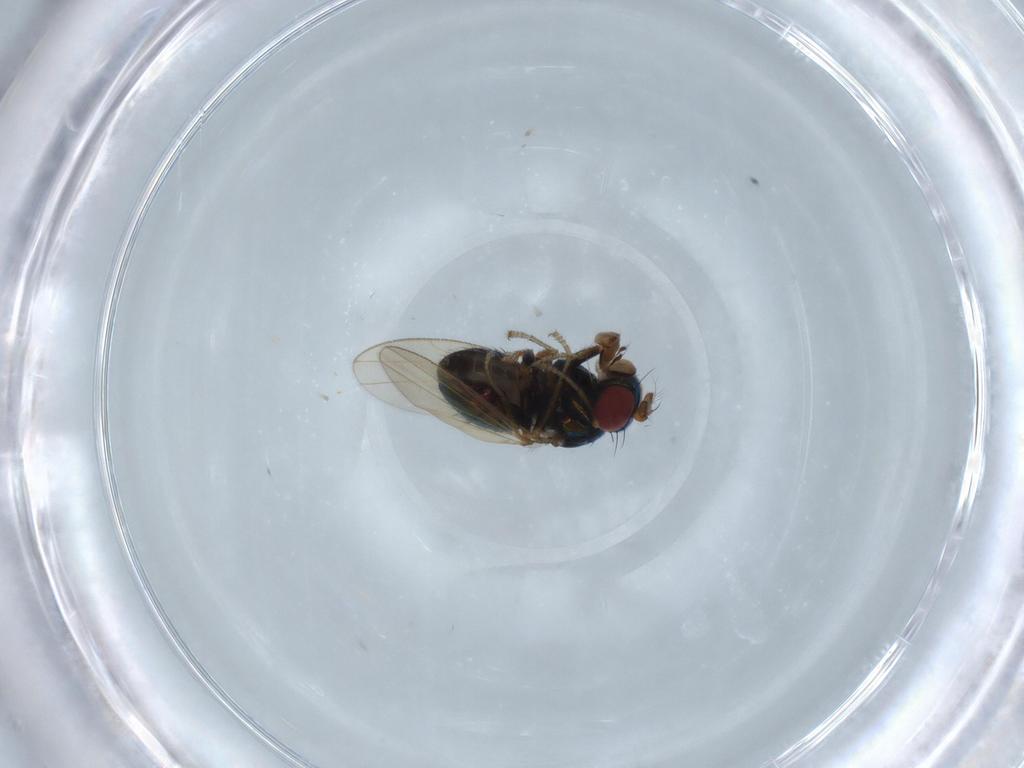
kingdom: Animalia
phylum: Arthropoda
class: Insecta
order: Diptera
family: Ephydridae
